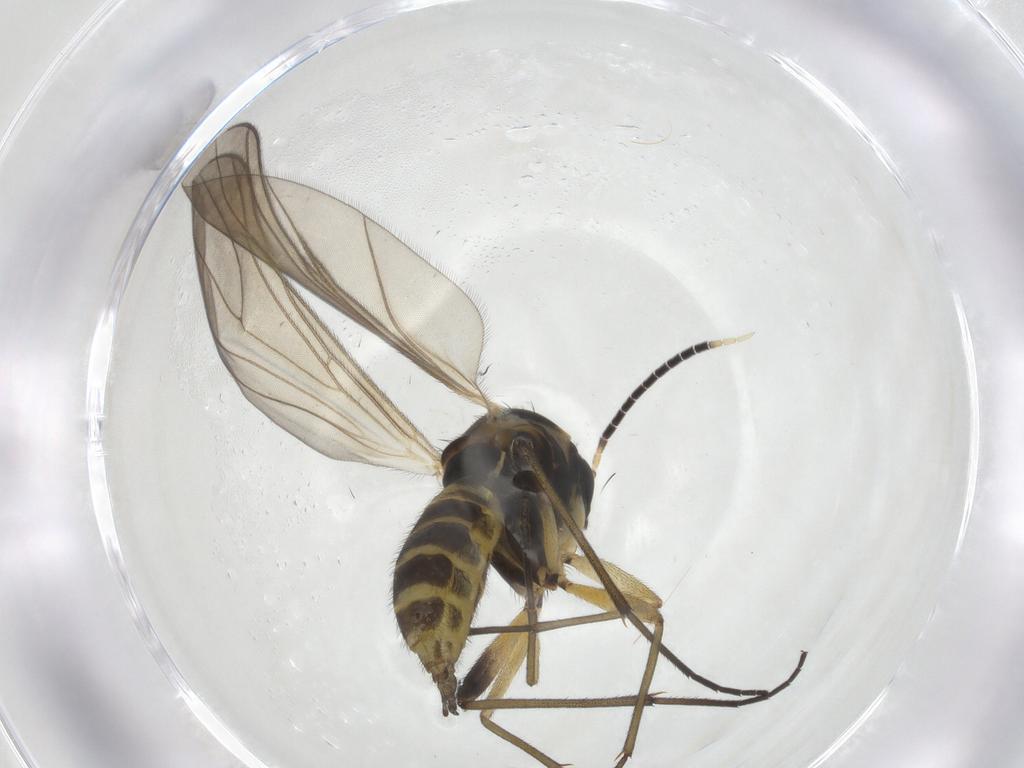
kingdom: Animalia
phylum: Arthropoda
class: Insecta
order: Diptera
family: Sciaridae
